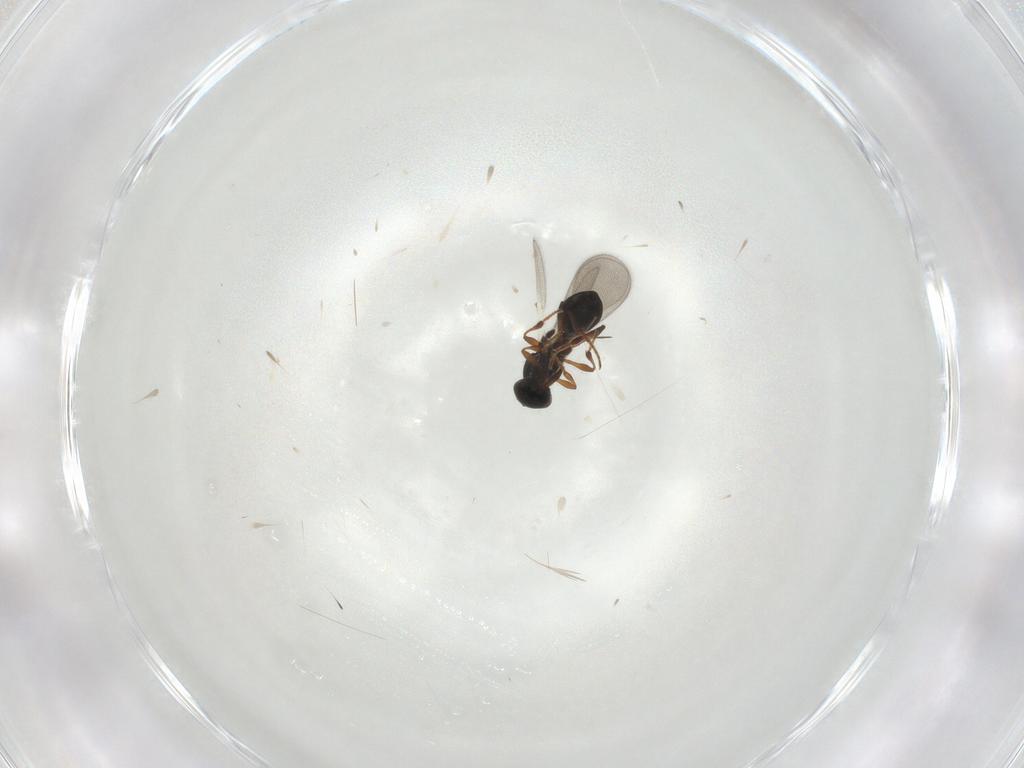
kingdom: Animalia
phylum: Arthropoda
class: Insecta
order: Hymenoptera
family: Platygastridae
